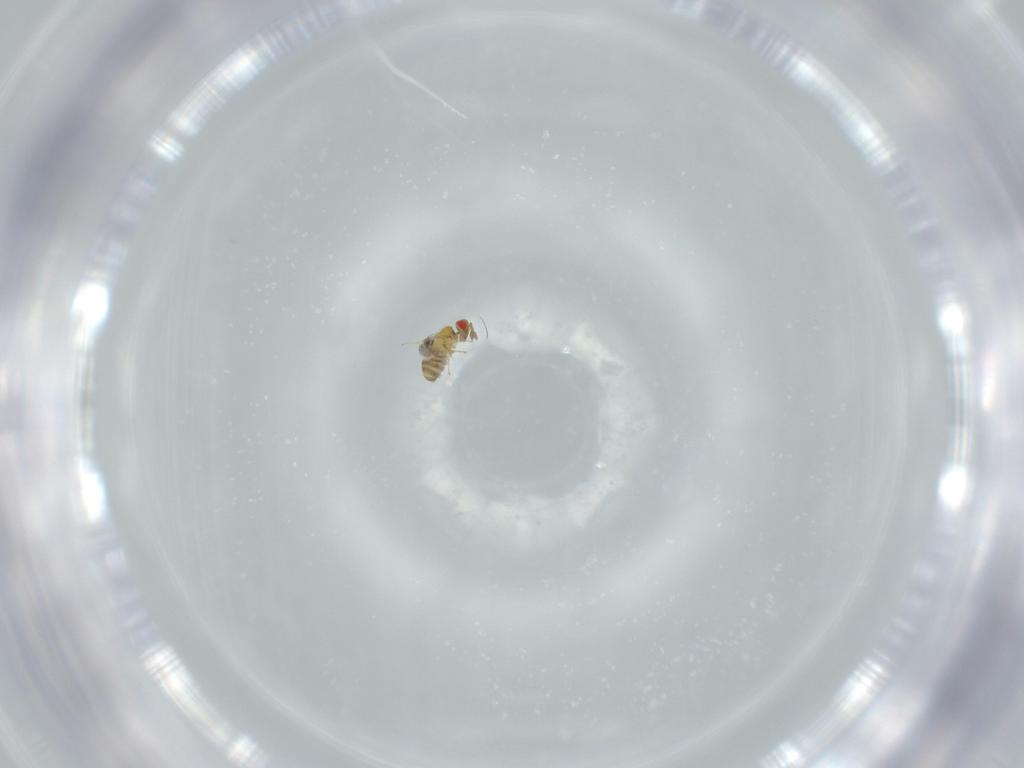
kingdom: Animalia
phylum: Arthropoda
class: Insecta
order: Hymenoptera
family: Trichogrammatidae
